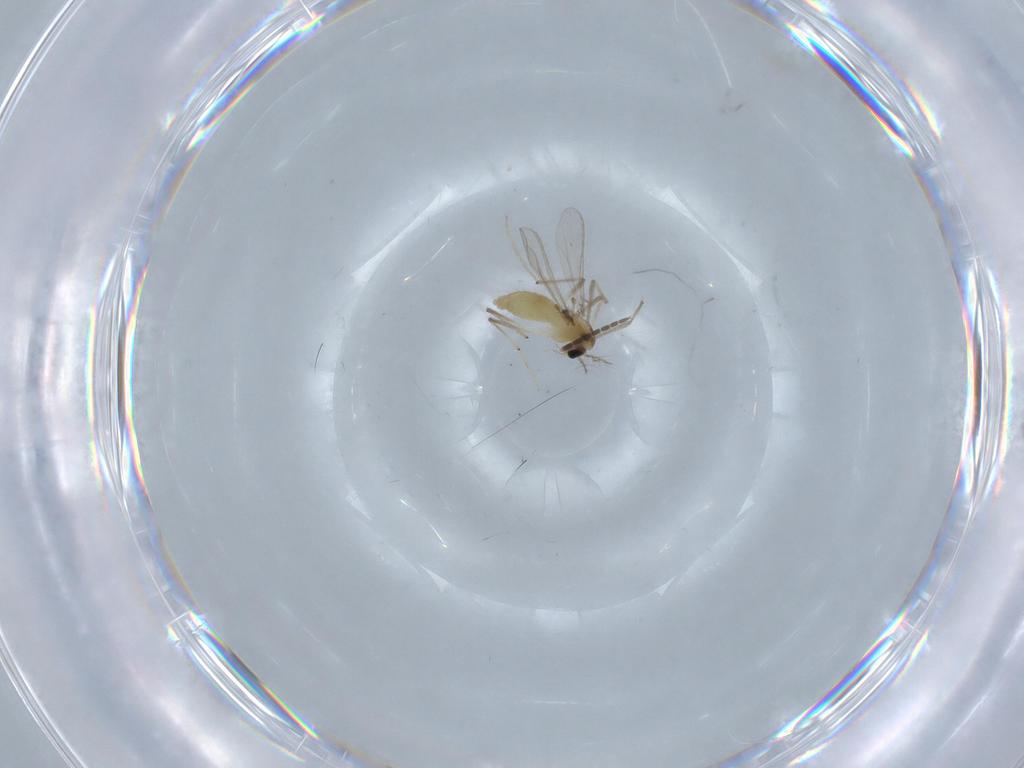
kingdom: Animalia
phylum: Arthropoda
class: Insecta
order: Diptera
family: Chironomidae
